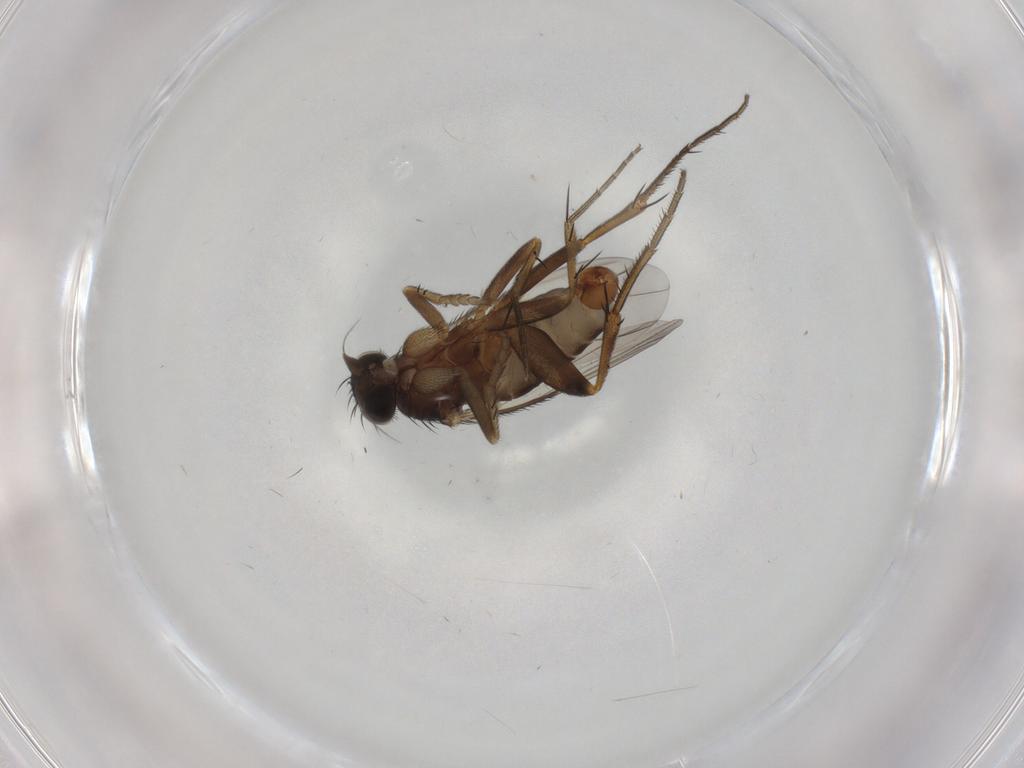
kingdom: Animalia
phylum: Arthropoda
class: Insecta
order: Diptera
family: Phoridae
